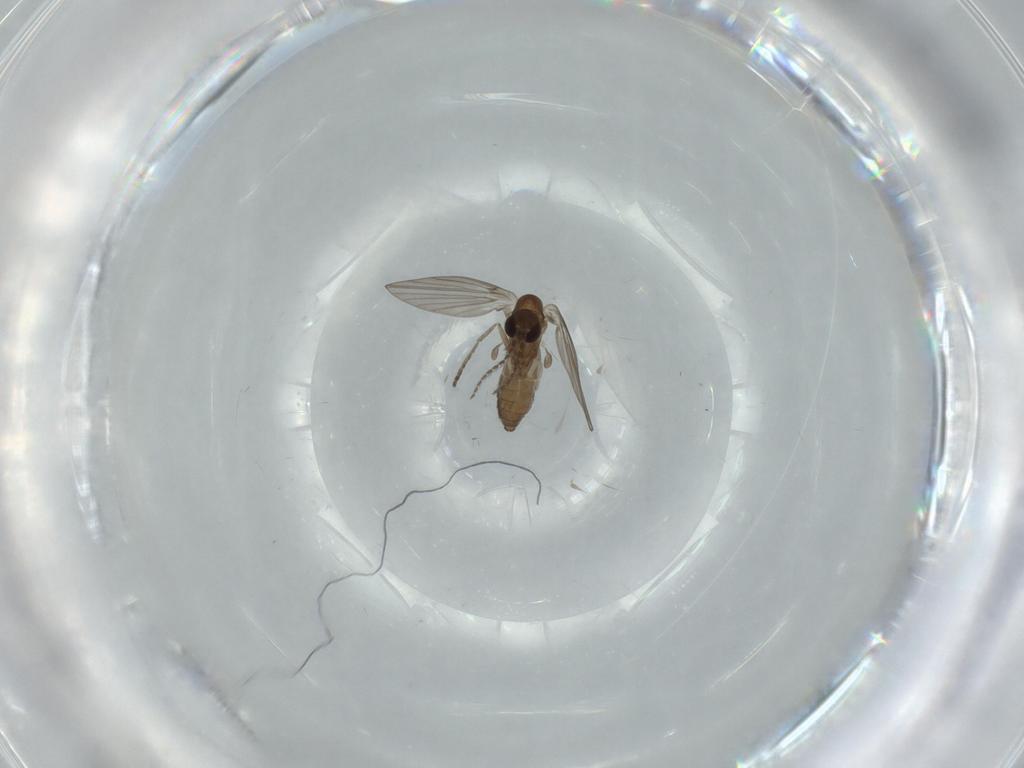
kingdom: Animalia
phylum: Arthropoda
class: Insecta
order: Diptera
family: Psychodidae
